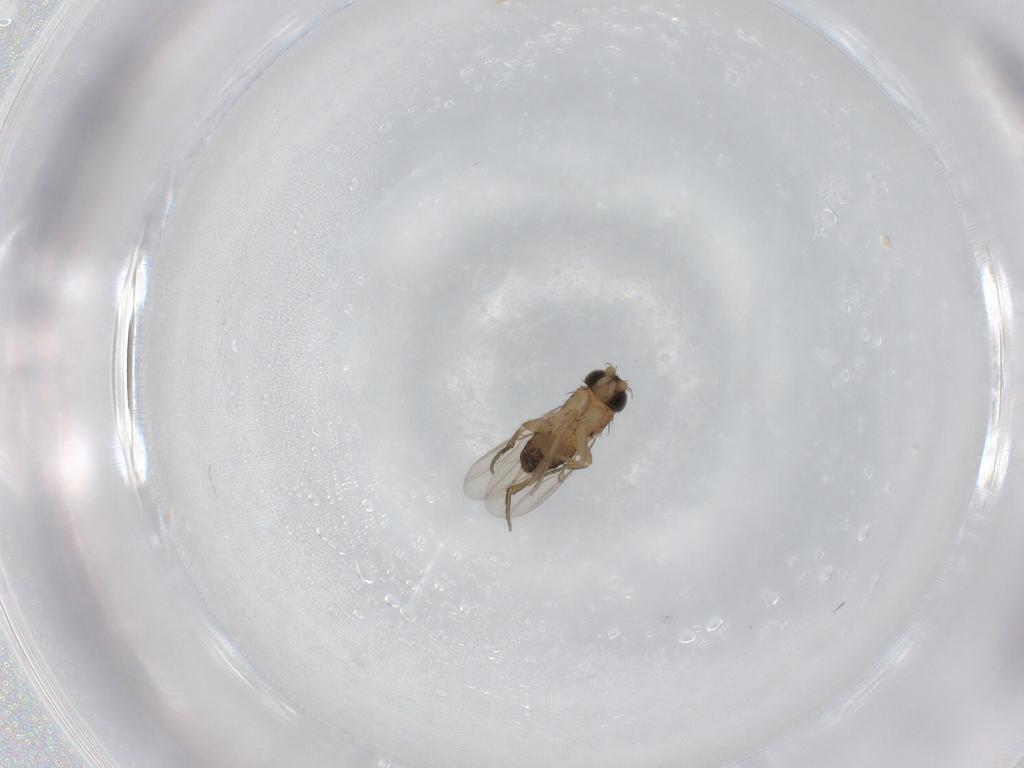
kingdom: Animalia
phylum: Arthropoda
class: Insecta
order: Diptera
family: Phoridae
